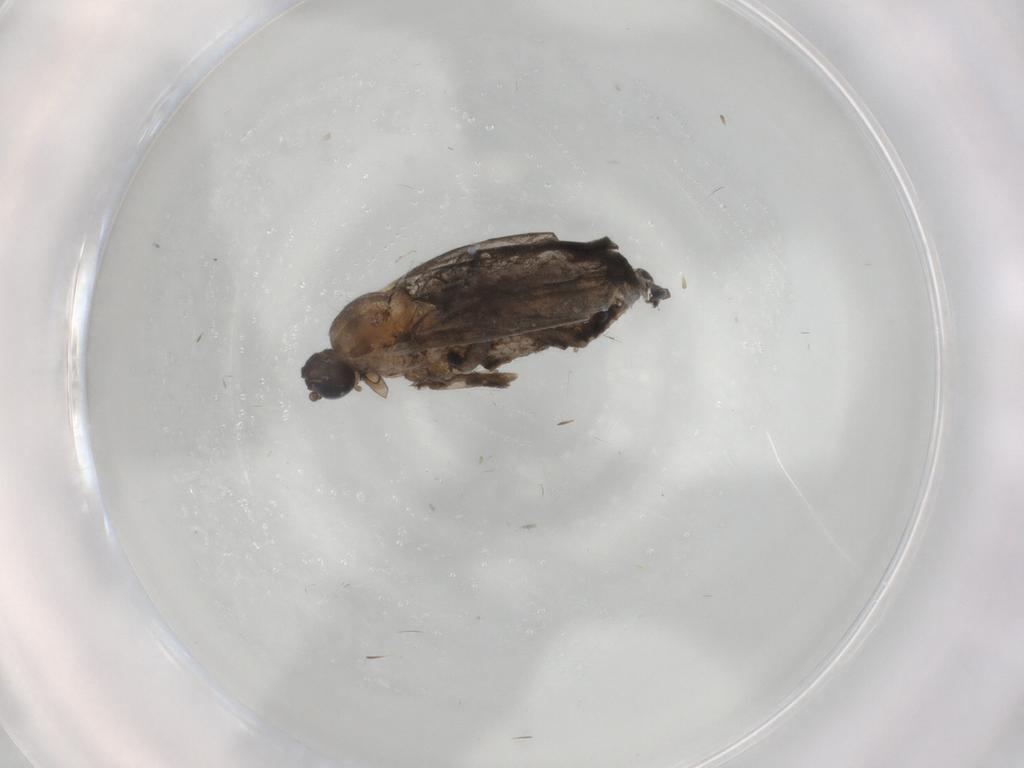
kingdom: Animalia
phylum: Arthropoda
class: Insecta
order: Diptera
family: Cecidomyiidae
